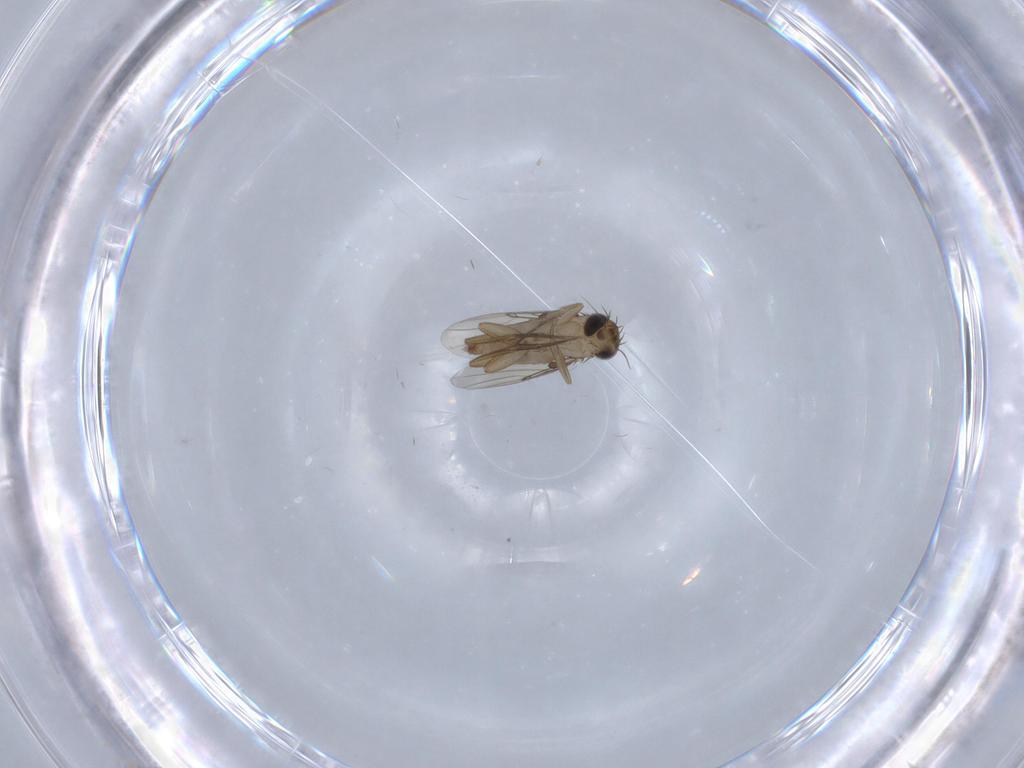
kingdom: Animalia
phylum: Arthropoda
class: Insecta
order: Diptera
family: Phoridae
